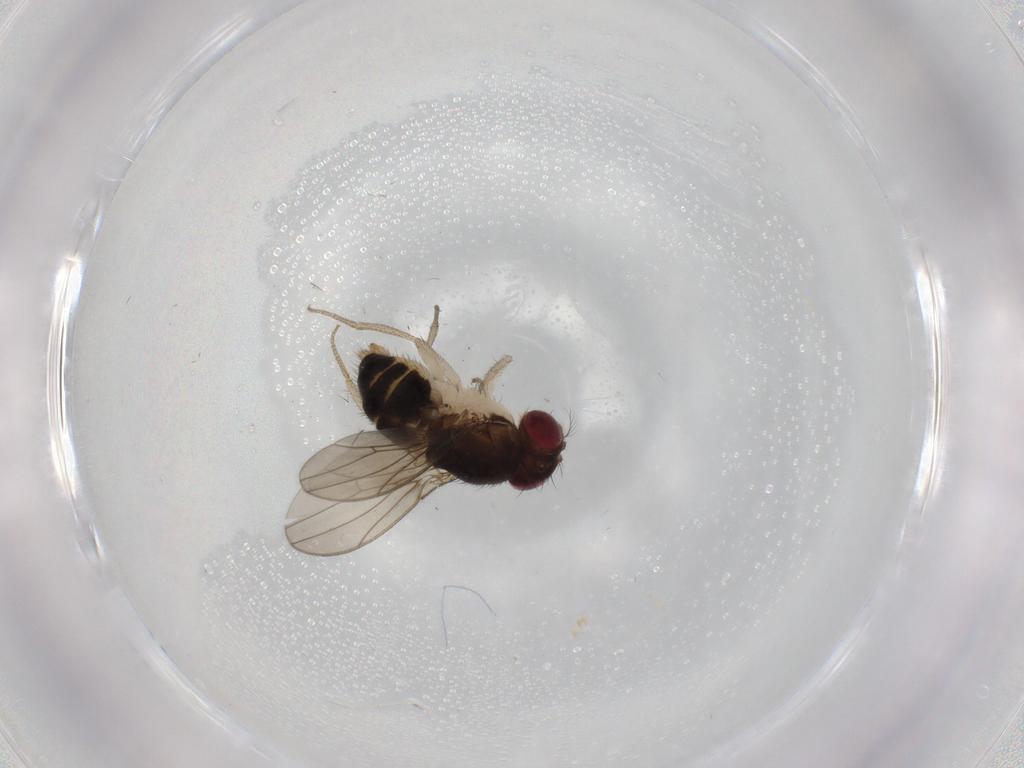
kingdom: Animalia
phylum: Arthropoda
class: Insecta
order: Diptera
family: Drosophilidae
